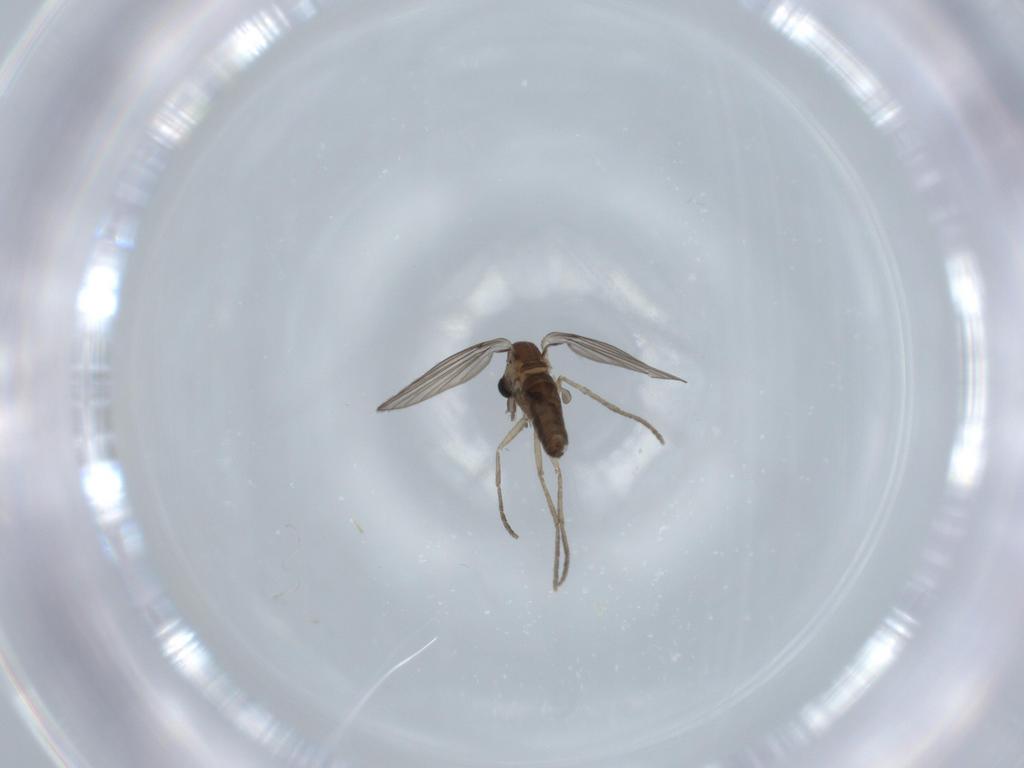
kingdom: Animalia
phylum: Arthropoda
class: Insecta
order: Diptera
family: Psychodidae
